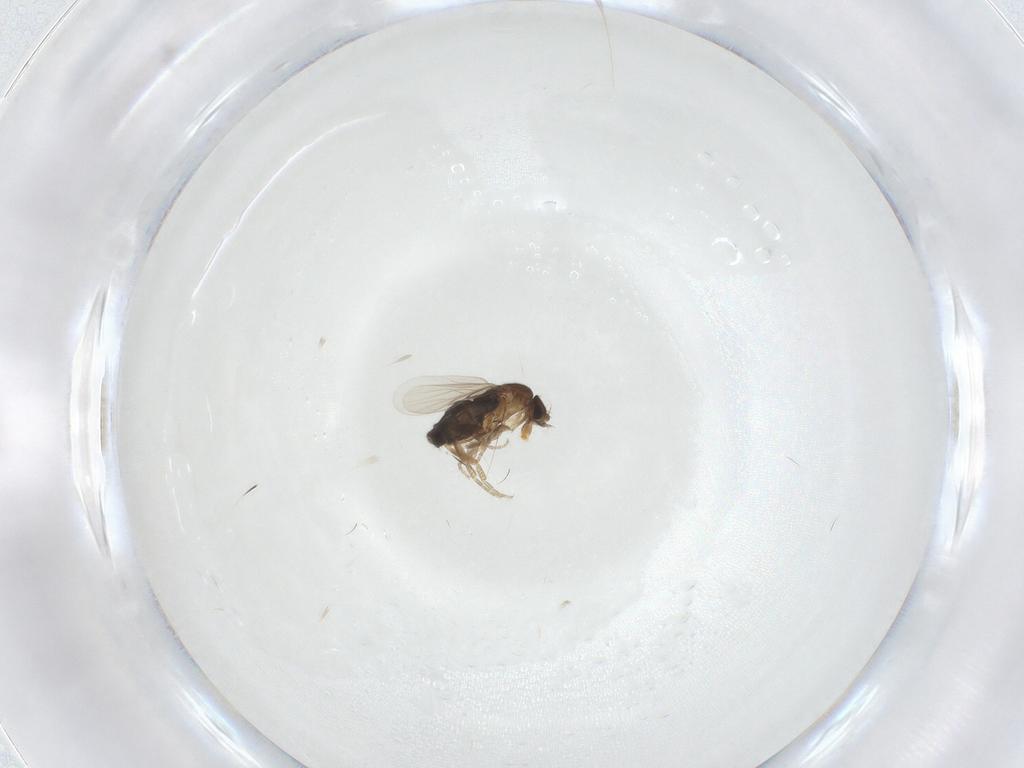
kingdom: Animalia
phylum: Arthropoda
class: Insecta
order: Diptera
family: Phoridae
